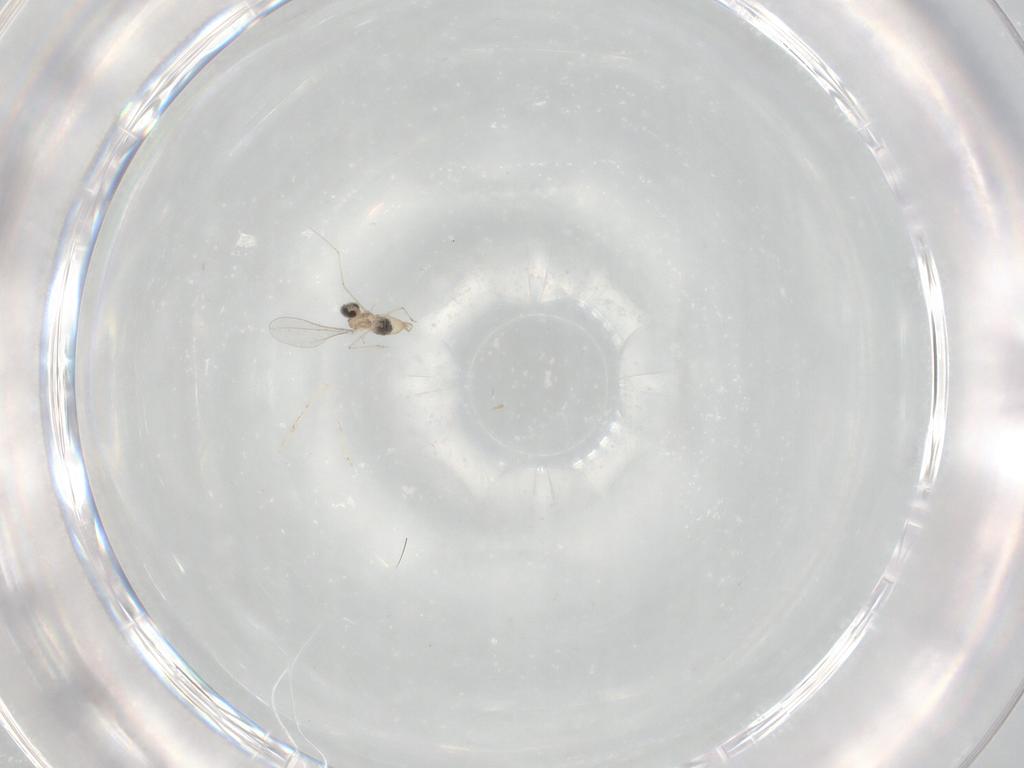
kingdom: Animalia
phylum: Arthropoda
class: Insecta
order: Diptera
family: Cecidomyiidae
